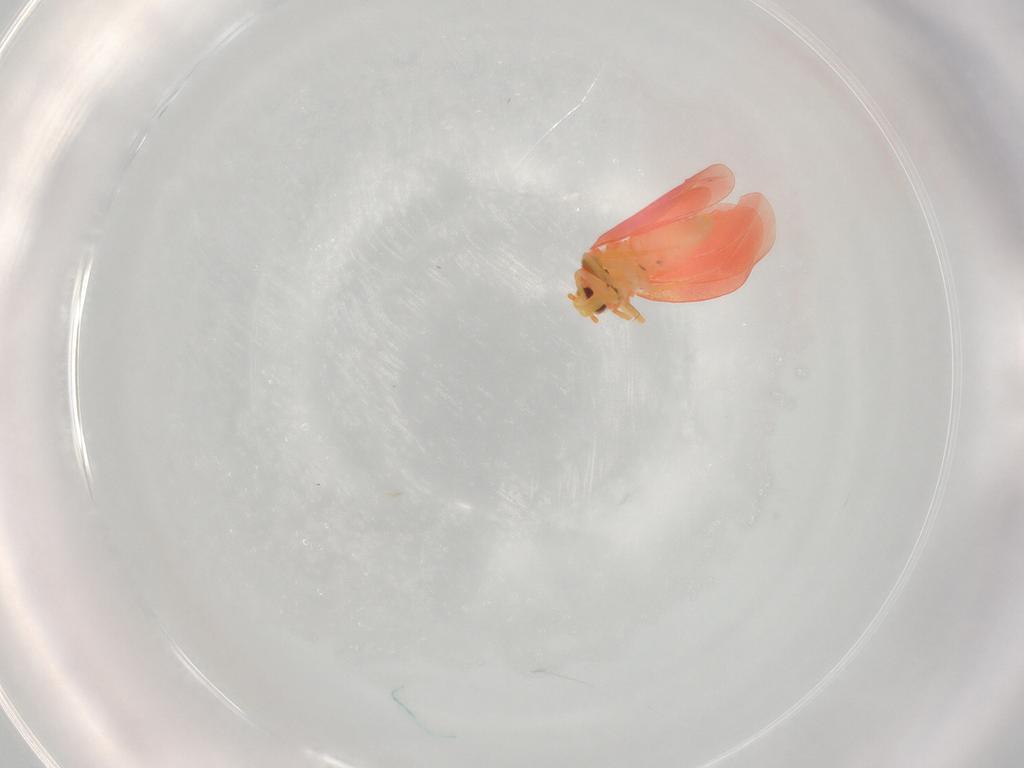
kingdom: Animalia
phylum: Arthropoda
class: Insecta
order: Hemiptera
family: Aleyrodidae
